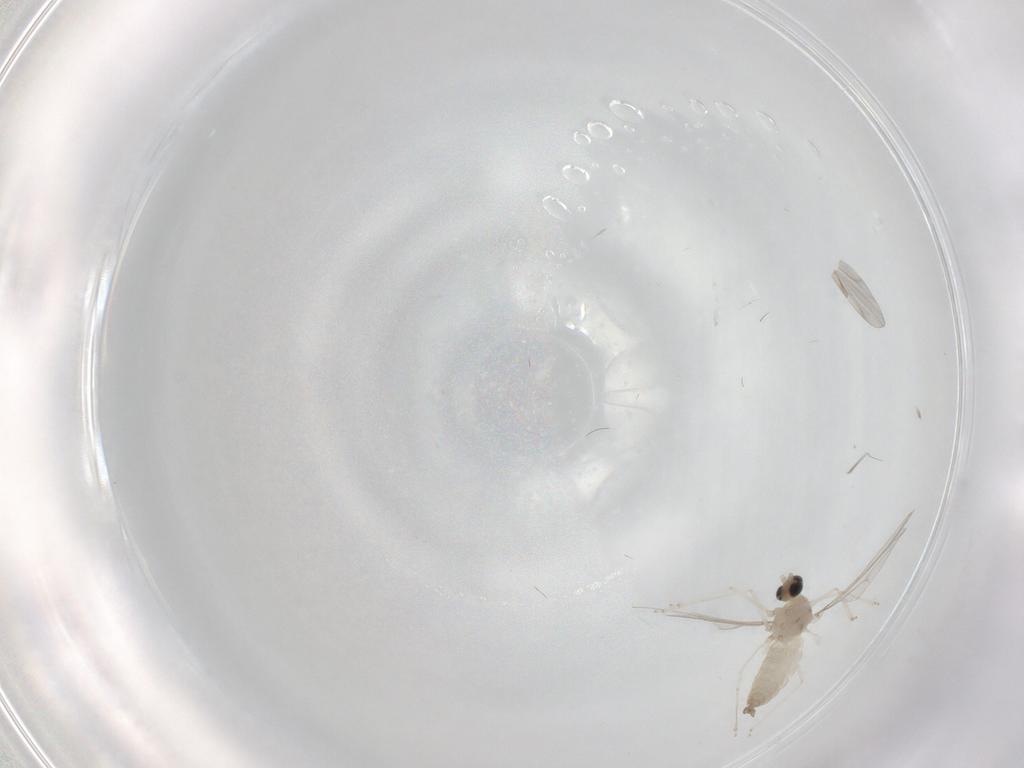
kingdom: Animalia
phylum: Arthropoda
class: Insecta
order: Diptera
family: Cecidomyiidae
